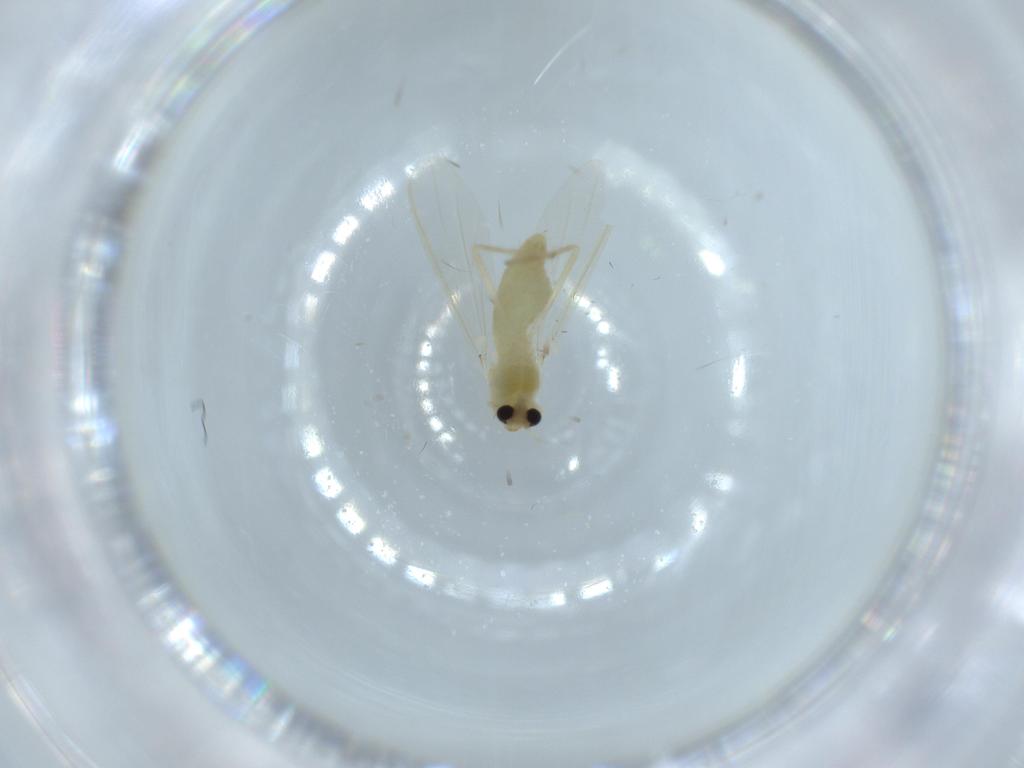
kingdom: Animalia
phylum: Arthropoda
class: Insecta
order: Diptera
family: Chironomidae
